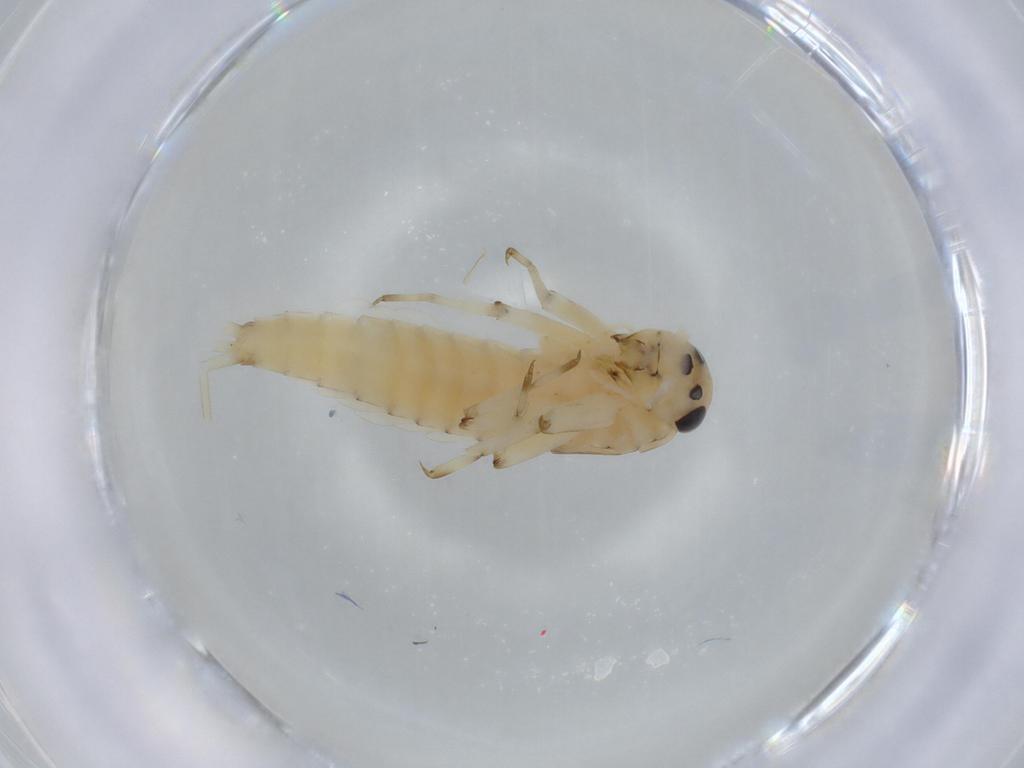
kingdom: Animalia
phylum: Arthropoda
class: Insecta
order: Ephemeroptera
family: Baetidae
